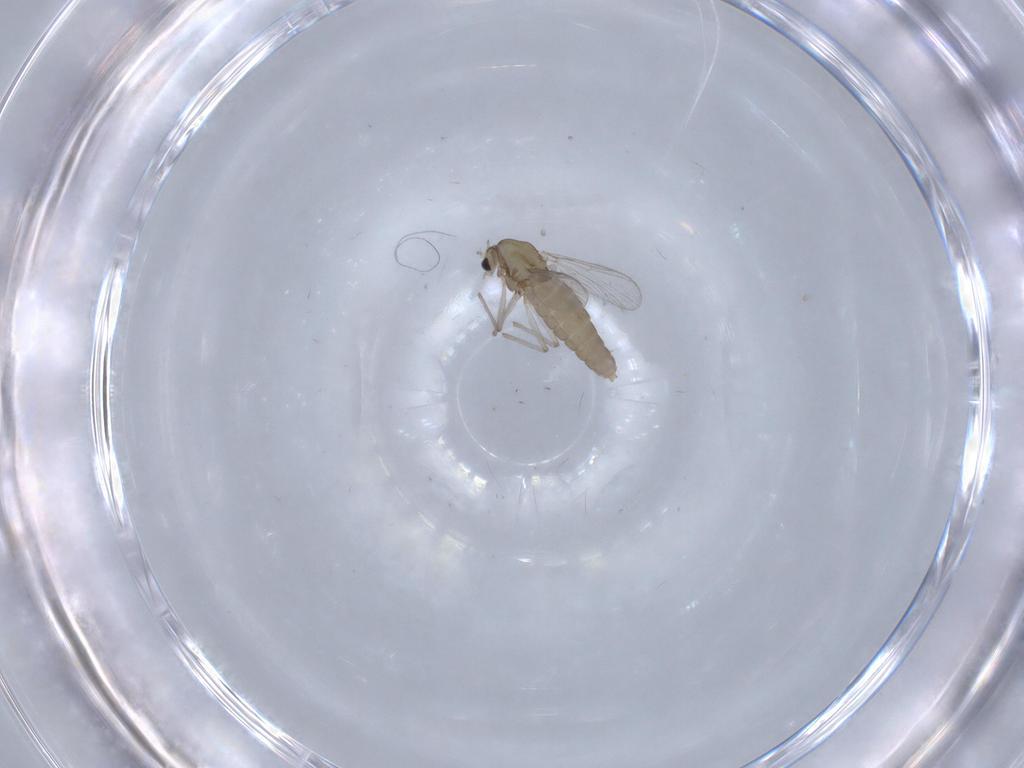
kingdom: Animalia
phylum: Arthropoda
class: Insecta
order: Diptera
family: Chironomidae
